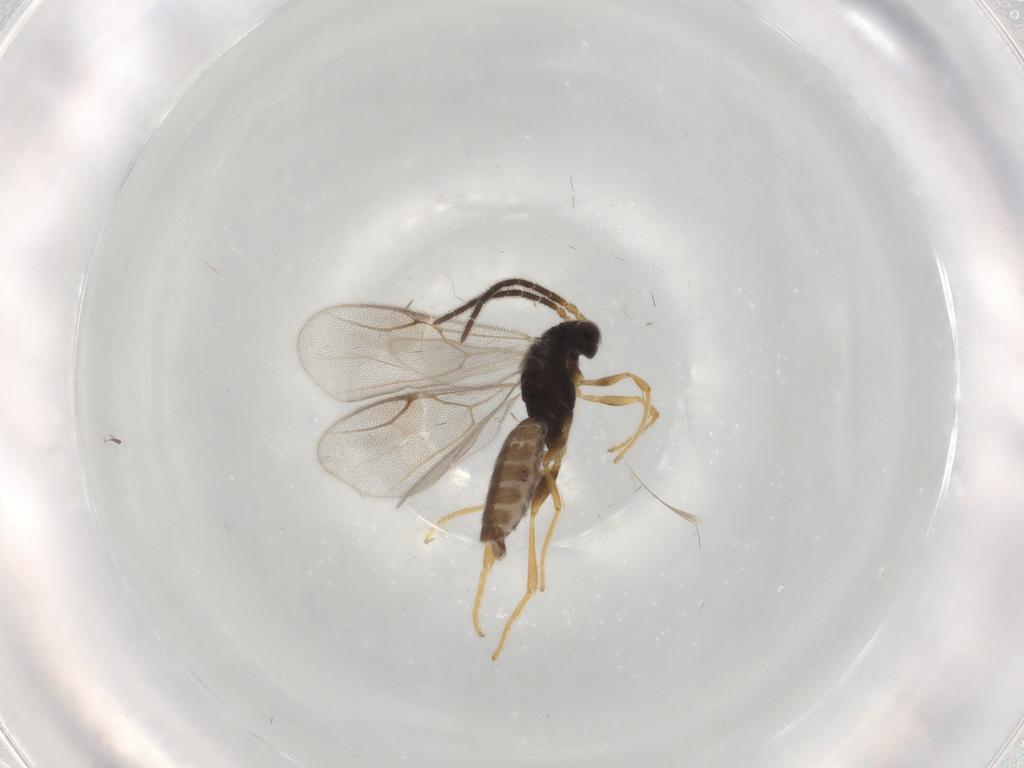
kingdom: Animalia
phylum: Arthropoda
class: Insecta
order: Hymenoptera
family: Dryinidae
